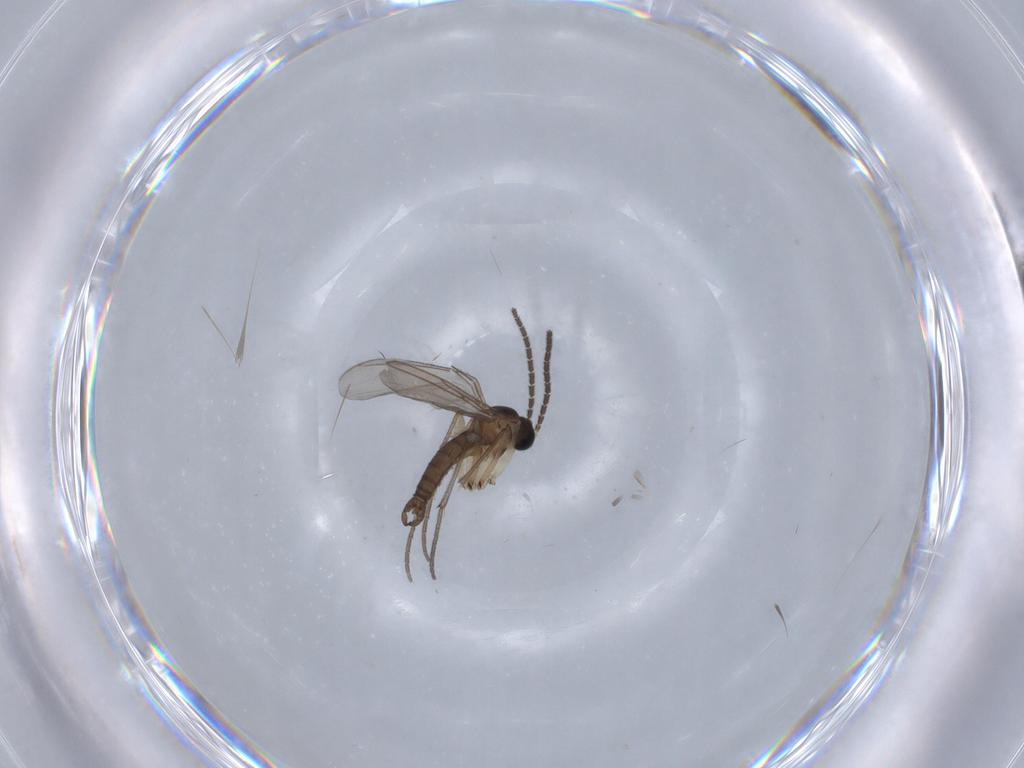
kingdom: Animalia
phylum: Arthropoda
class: Insecta
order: Diptera
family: Sciaridae
